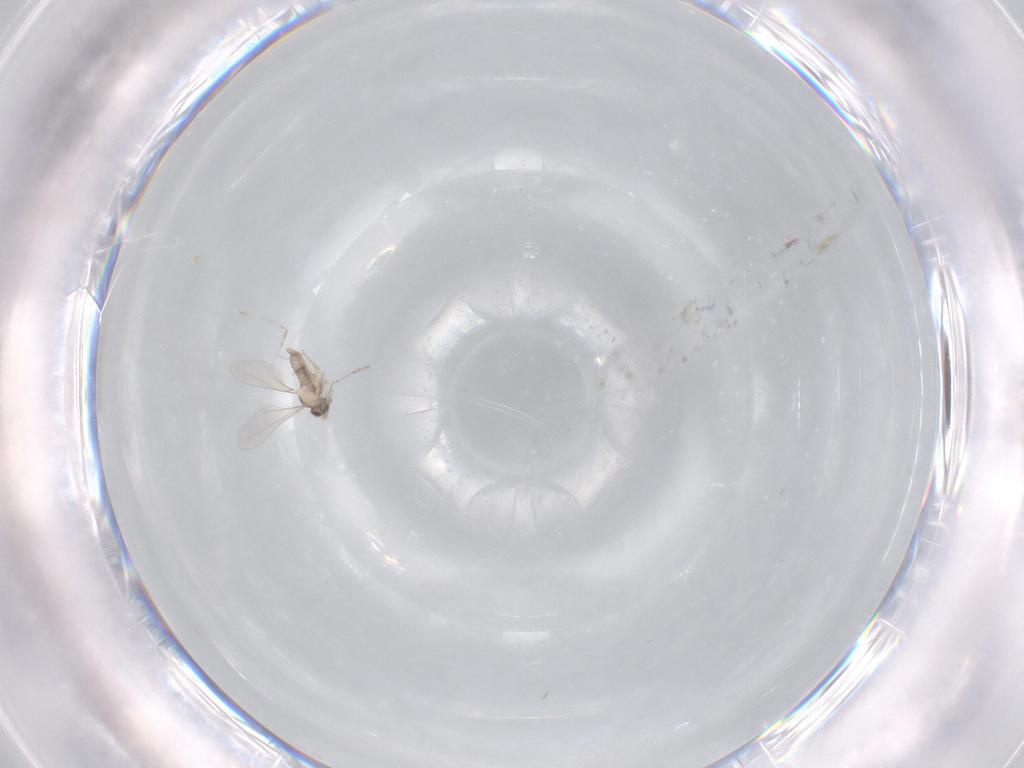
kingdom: Animalia
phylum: Arthropoda
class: Insecta
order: Diptera
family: Dolichopodidae
